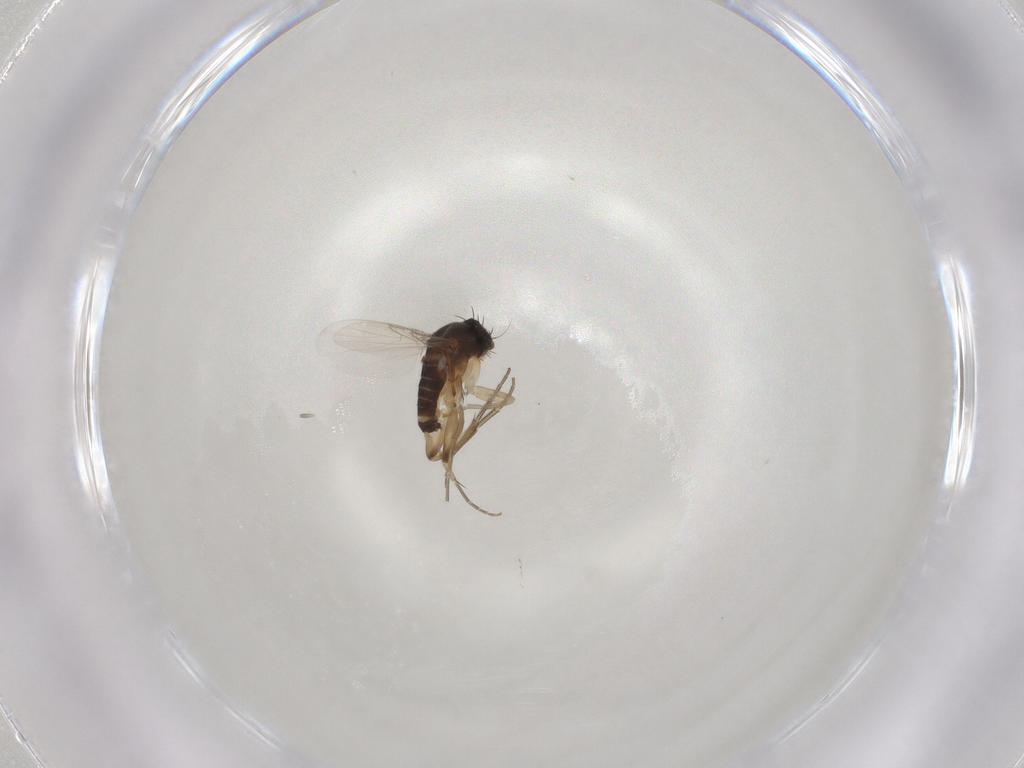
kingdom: Animalia
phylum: Arthropoda
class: Insecta
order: Diptera
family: Phoridae
